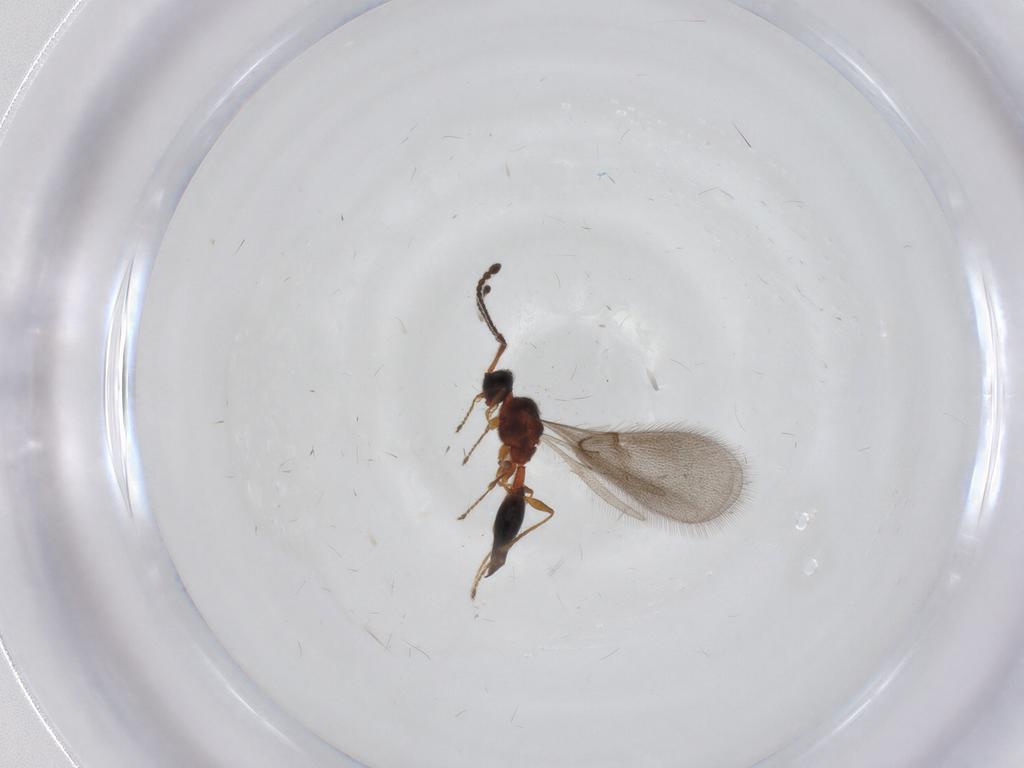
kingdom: Animalia
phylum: Arthropoda
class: Insecta
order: Hymenoptera
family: Diapriidae
